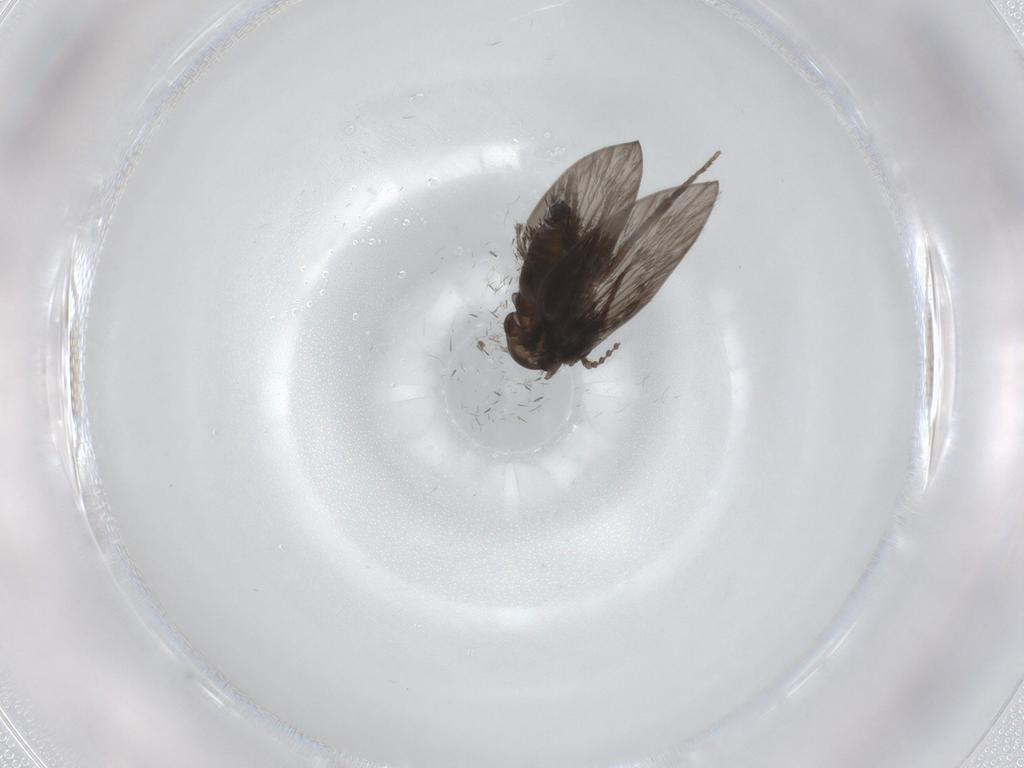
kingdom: Animalia
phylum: Arthropoda
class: Insecta
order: Diptera
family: Psychodidae
